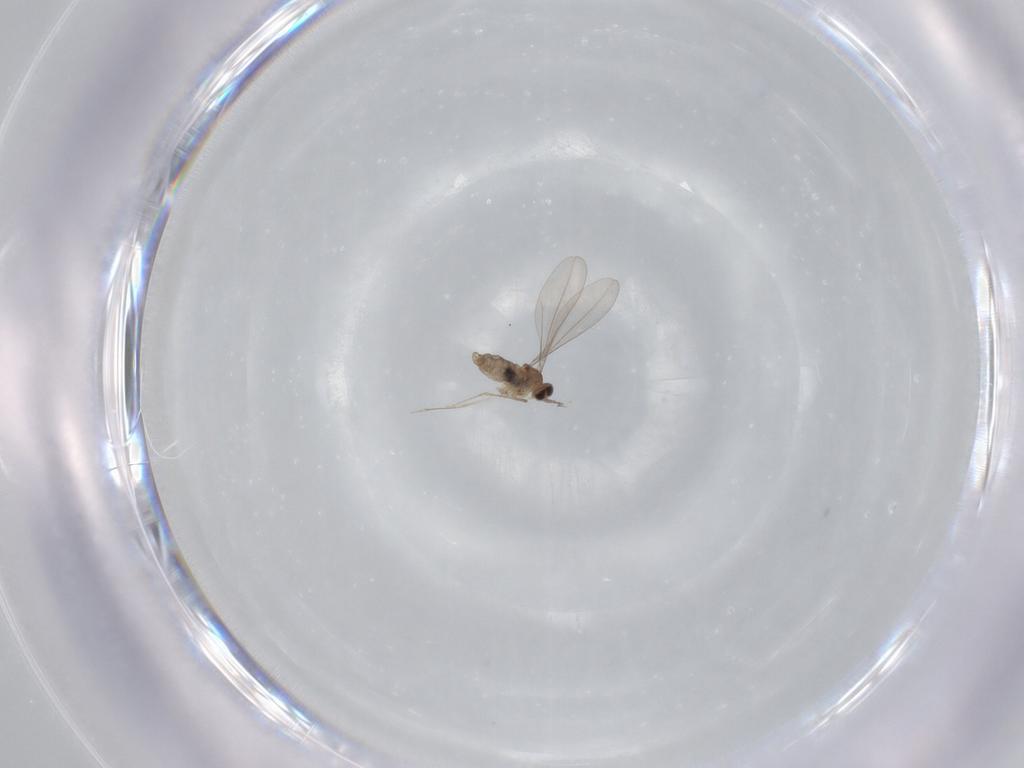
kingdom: Animalia
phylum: Arthropoda
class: Insecta
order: Diptera
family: Cecidomyiidae
